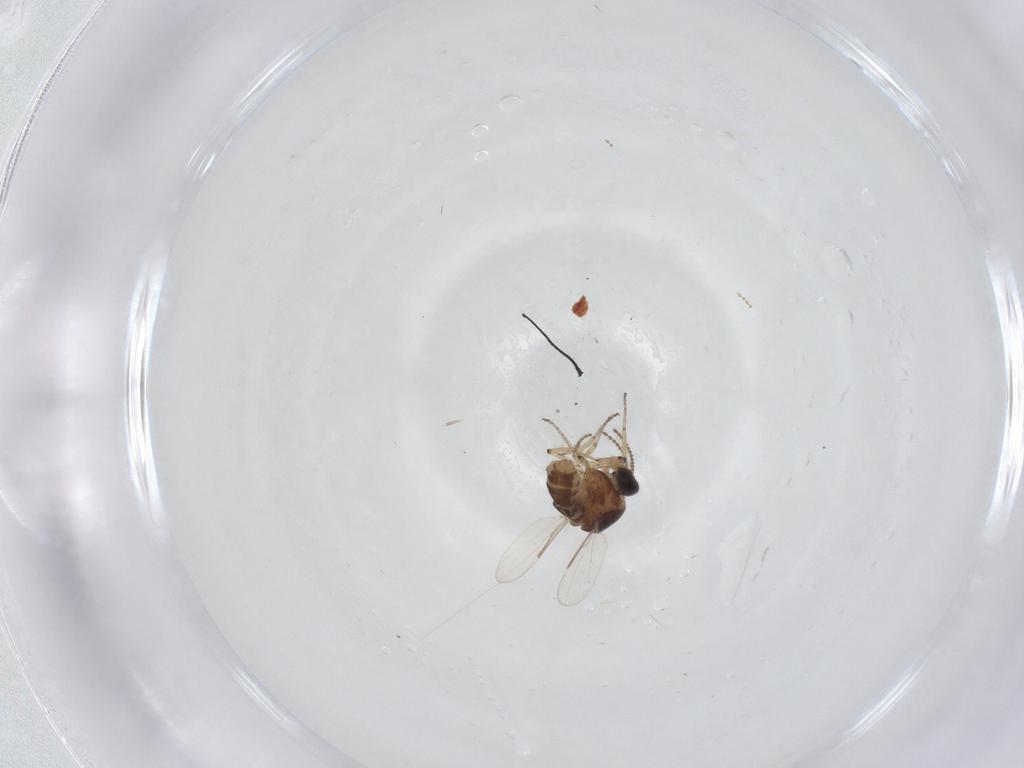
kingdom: Animalia
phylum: Arthropoda
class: Insecta
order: Diptera
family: Ceratopogonidae
